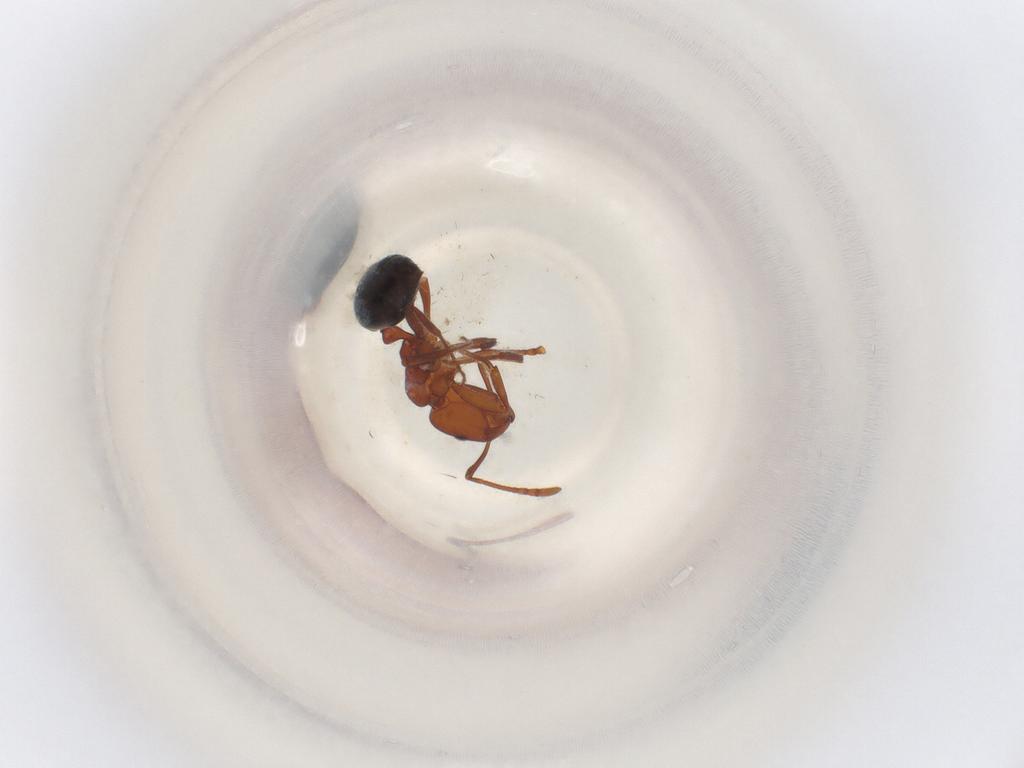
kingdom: Animalia
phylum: Arthropoda
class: Insecta
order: Hymenoptera
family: Formicidae
